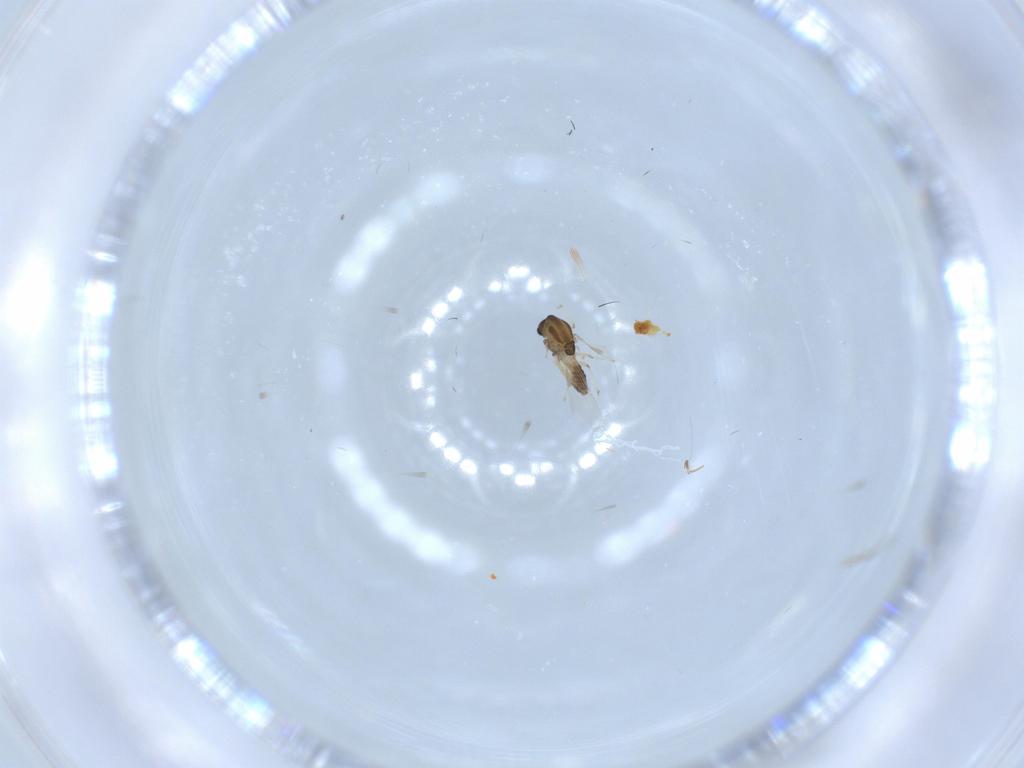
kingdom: Animalia
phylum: Arthropoda
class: Insecta
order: Diptera
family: Chironomidae
